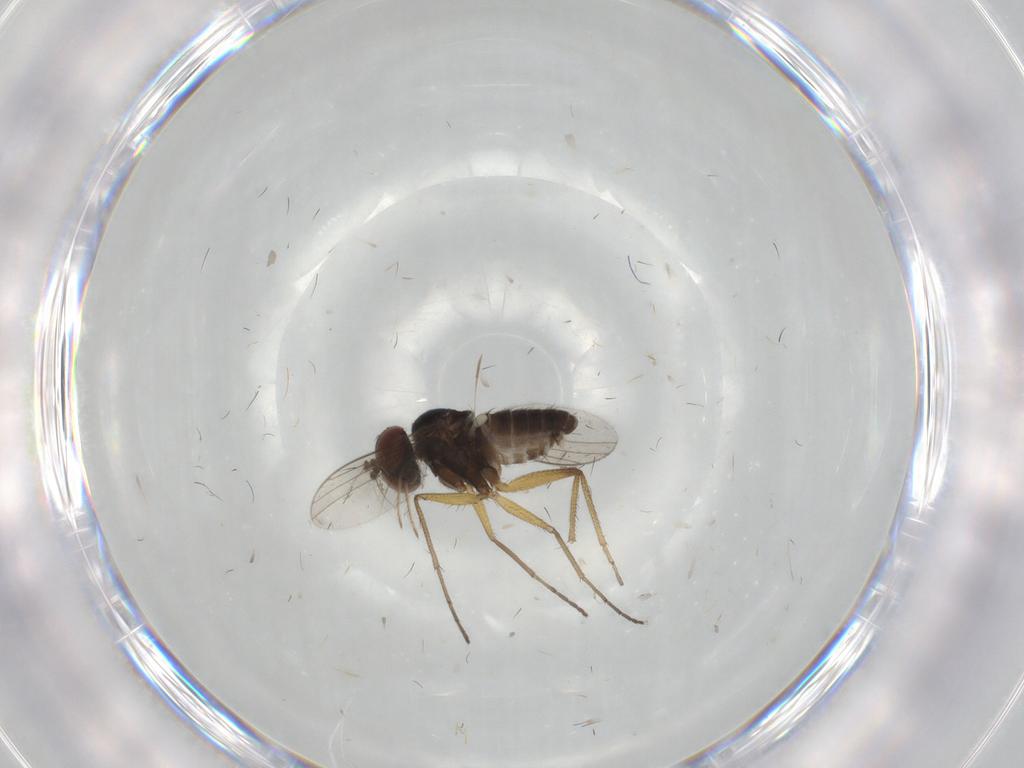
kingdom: Animalia
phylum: Arthropoda
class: Insecta
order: Diptera
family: Dolichopodidae
